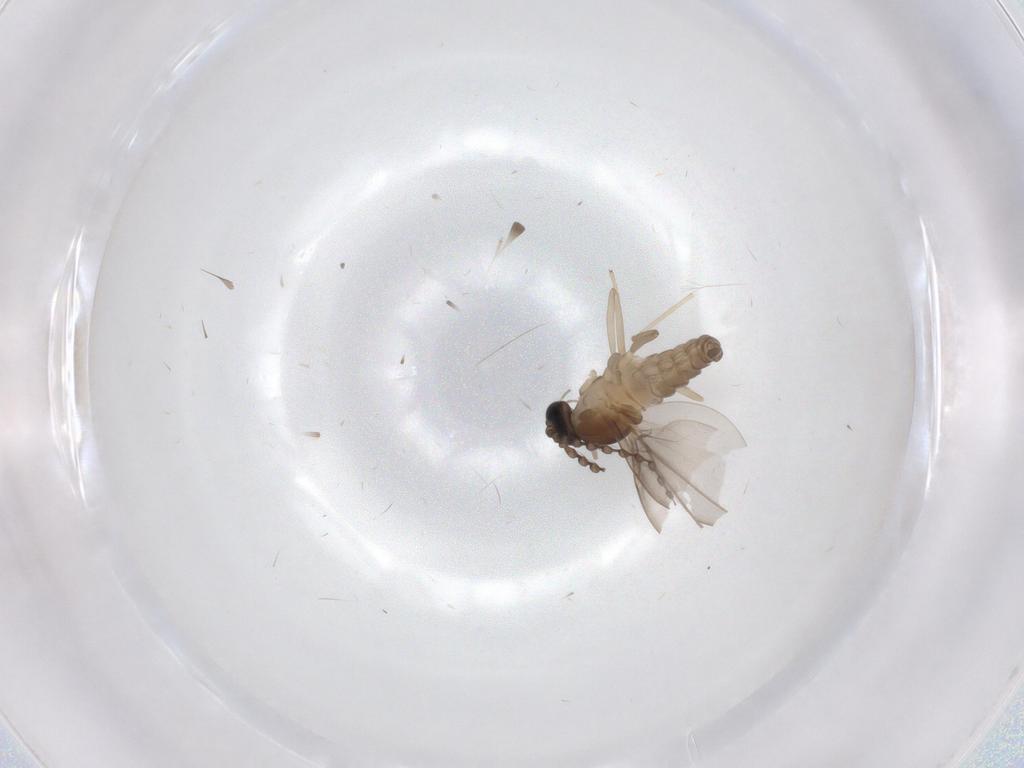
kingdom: Animalia
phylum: Arthropoda
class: Insecta
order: Diptera
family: Cecidomyiidae
